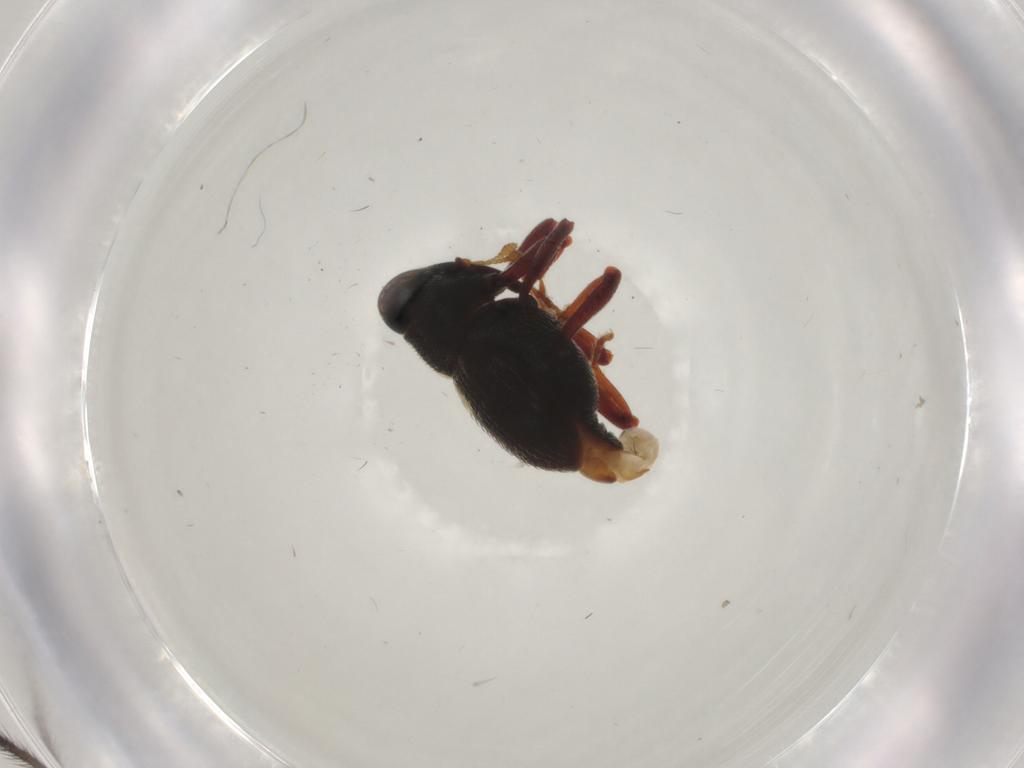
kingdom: Animalia
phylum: Arthropoda
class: Insecta
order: Coleoptera
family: Curculionidae
